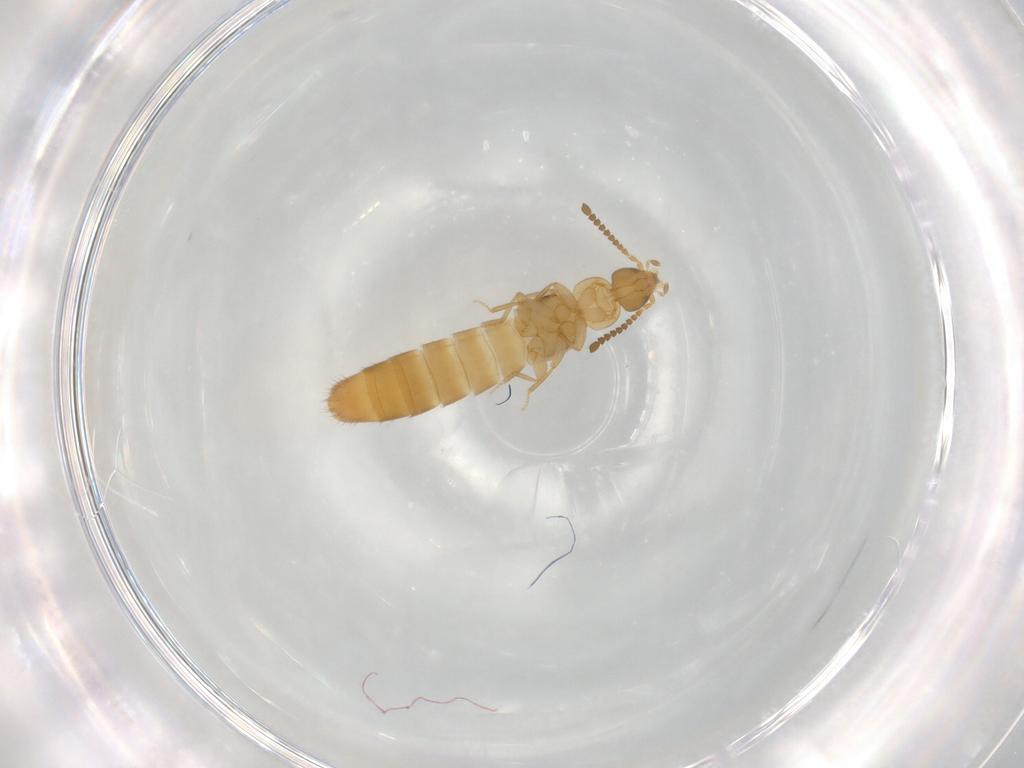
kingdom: Animalia
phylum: Arthropoda
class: Insecta
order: Coleoptera
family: Staphylinidae
